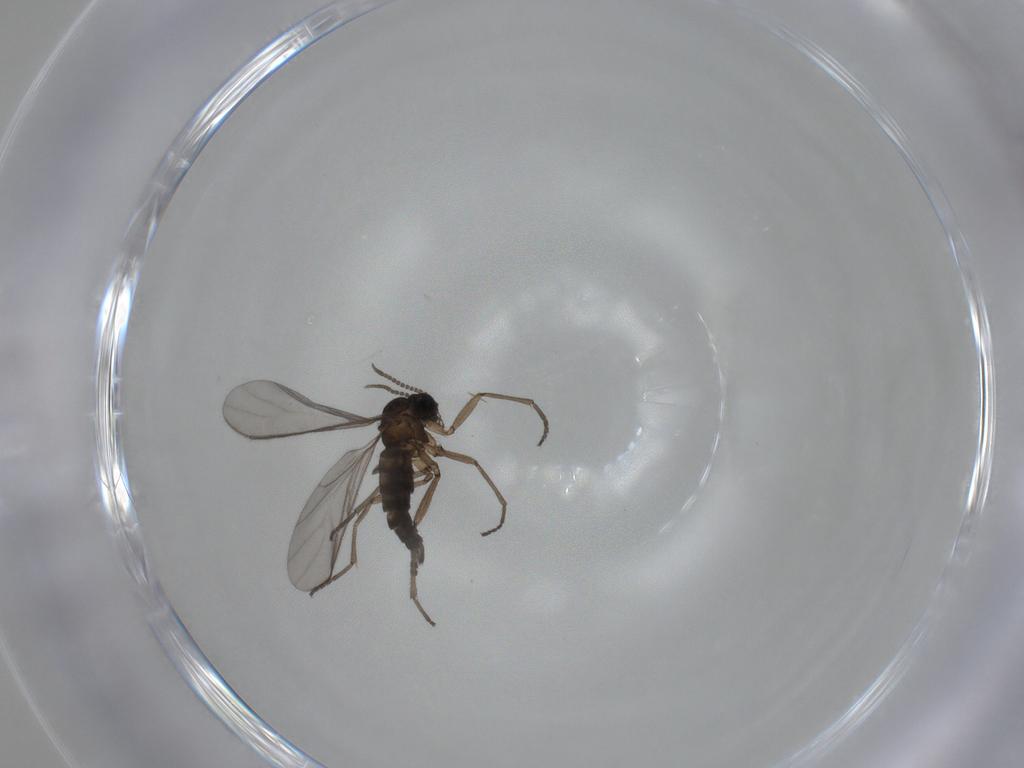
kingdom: Animalia
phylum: Arthropoda
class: Insecta
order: Diptera
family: Sciaridae
